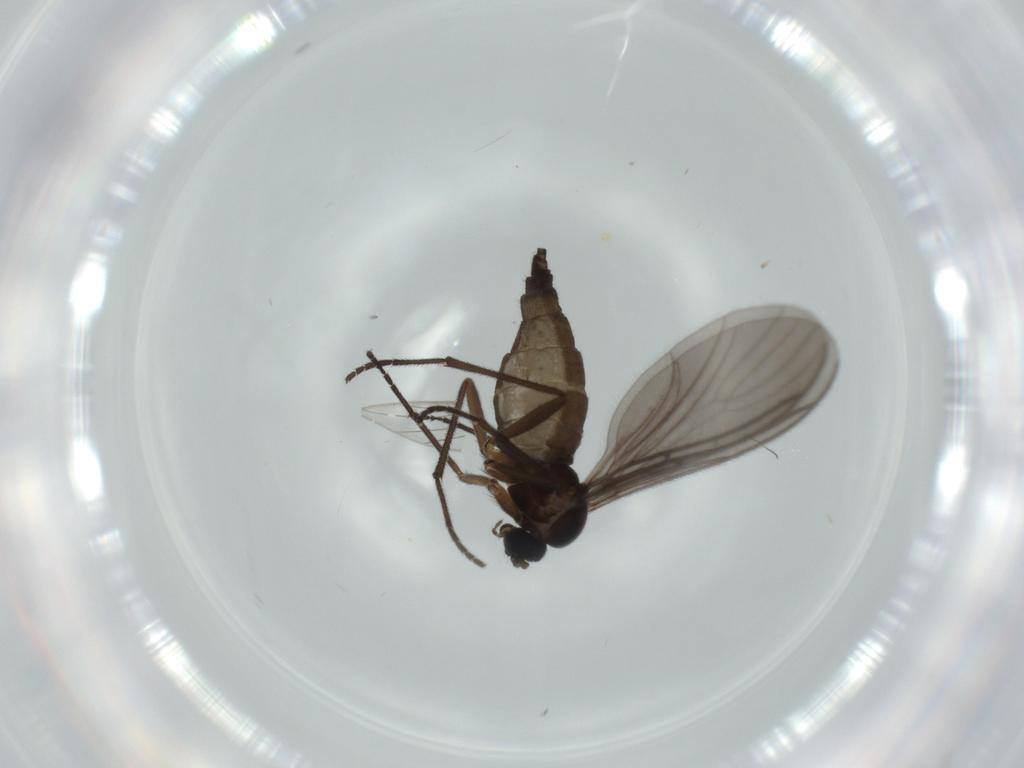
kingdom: Animalia
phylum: Arthropoda
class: Insecta
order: Diptera
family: Sciaridae
